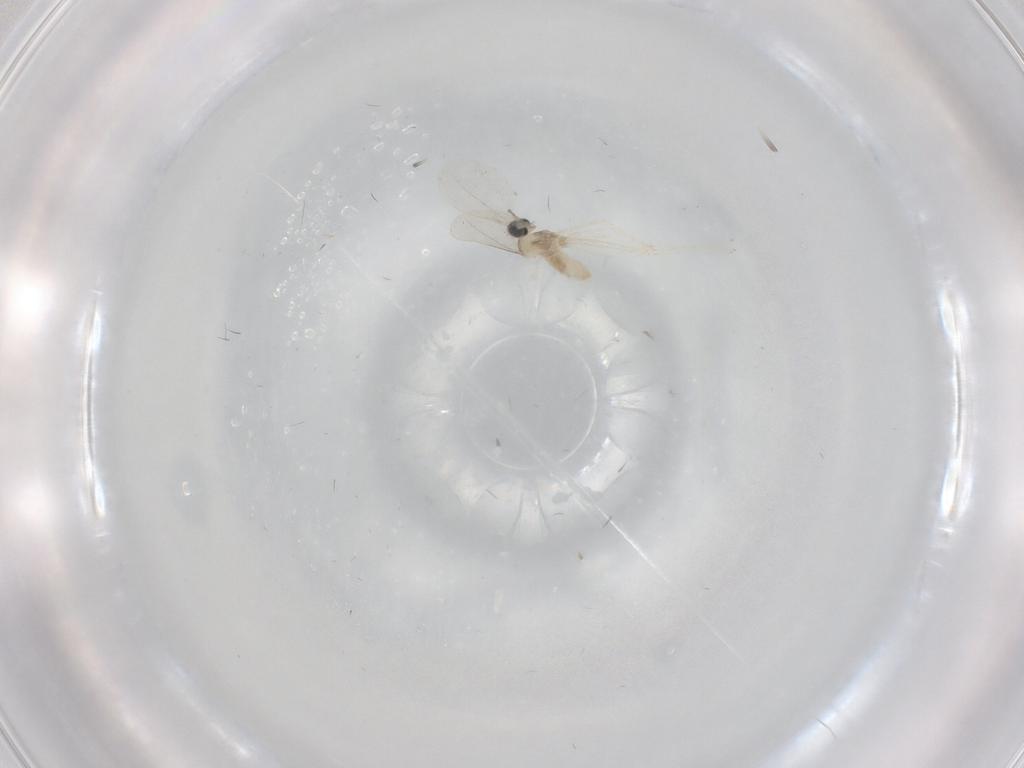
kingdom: Animalia
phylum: Arthropoda
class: Insecta
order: Diptera
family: Cecidomyiidae
